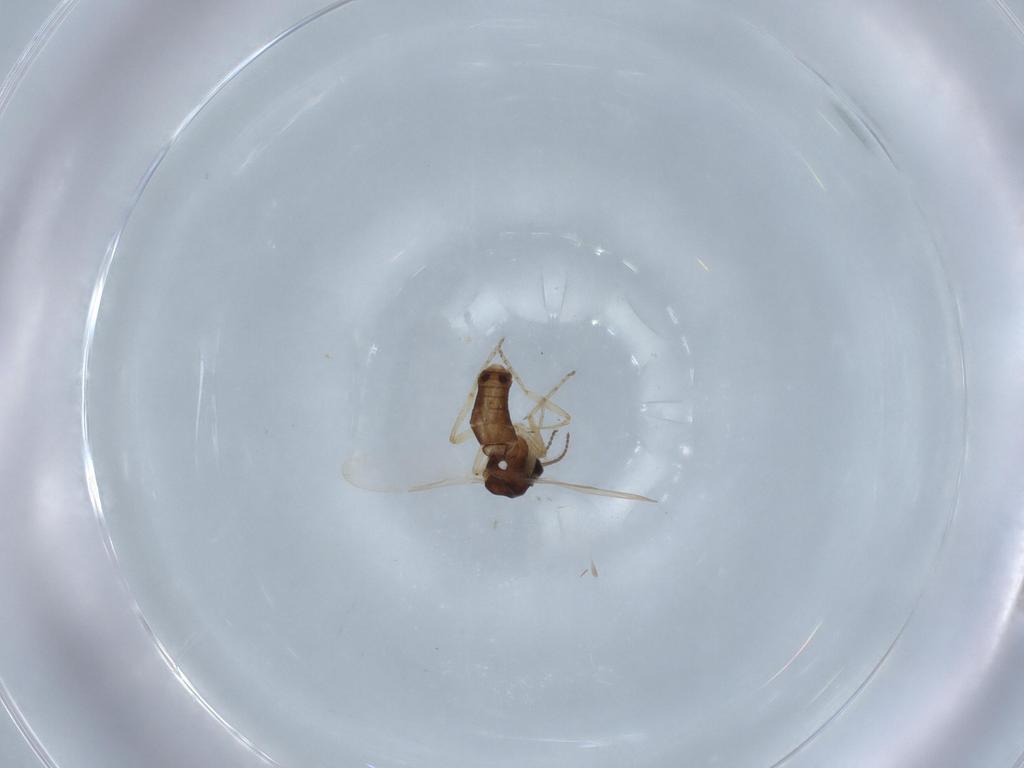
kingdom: Animalia
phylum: Arthropoda
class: Insecta
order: Diptera
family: Ceratopogonidae
